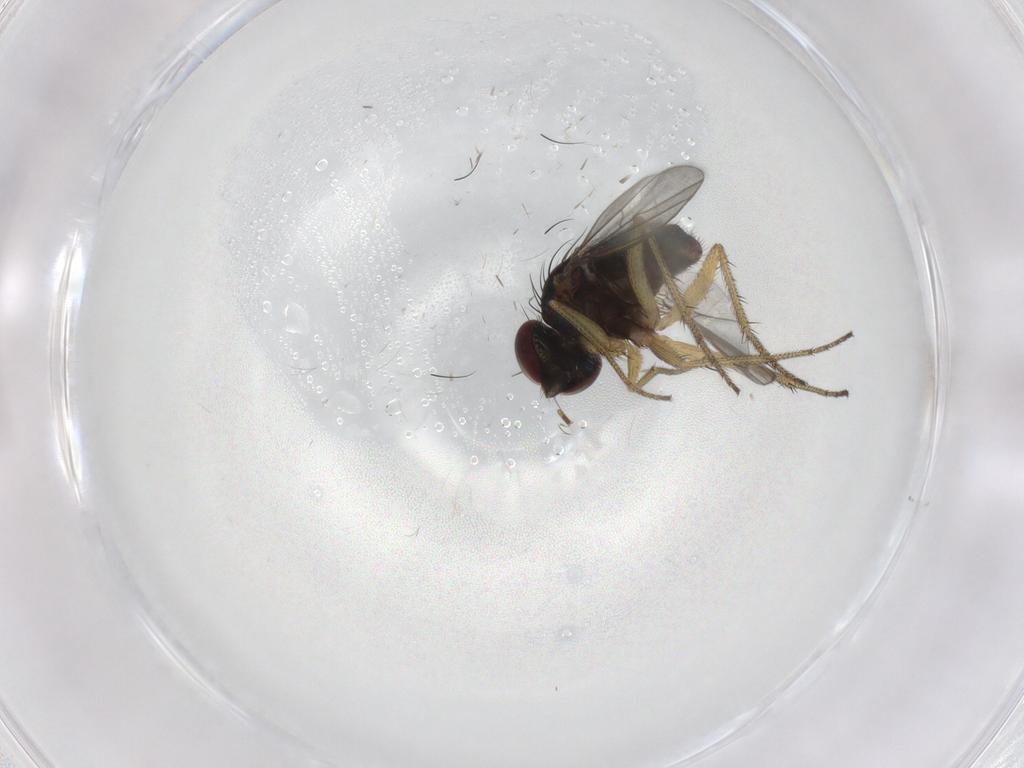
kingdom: Animalia
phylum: Arthropoda
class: Insecta
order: Diptera
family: Dolichopodidae
